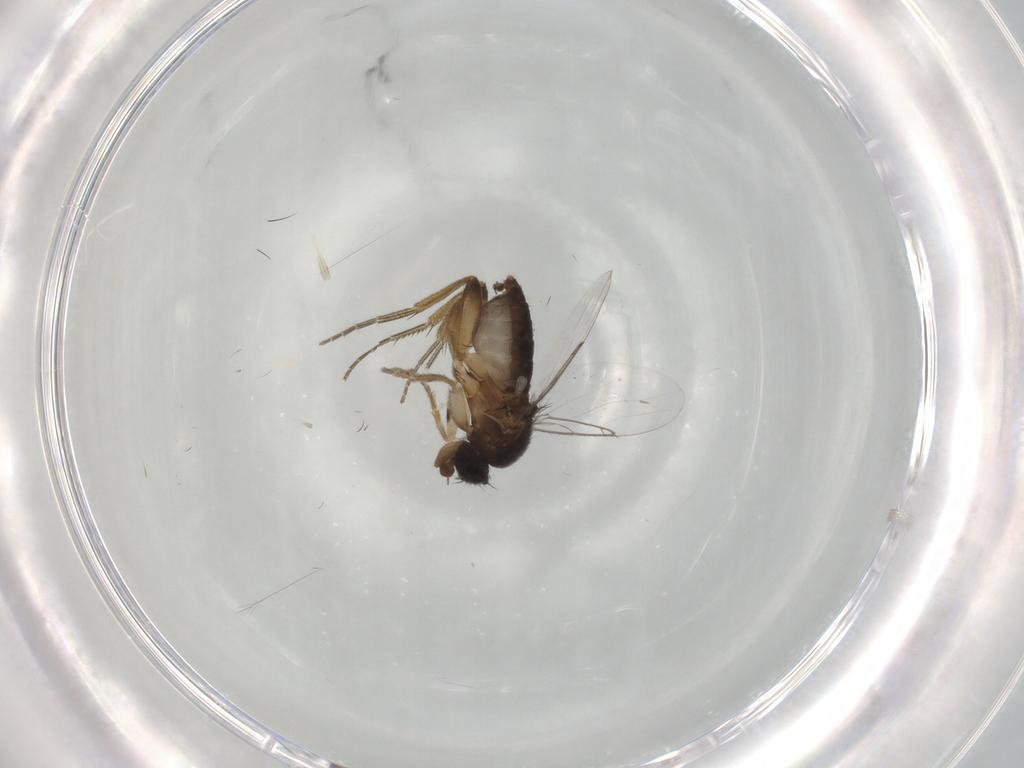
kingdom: Animalia
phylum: Arthropoda
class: Insecta
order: Diptera
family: Phoridae
